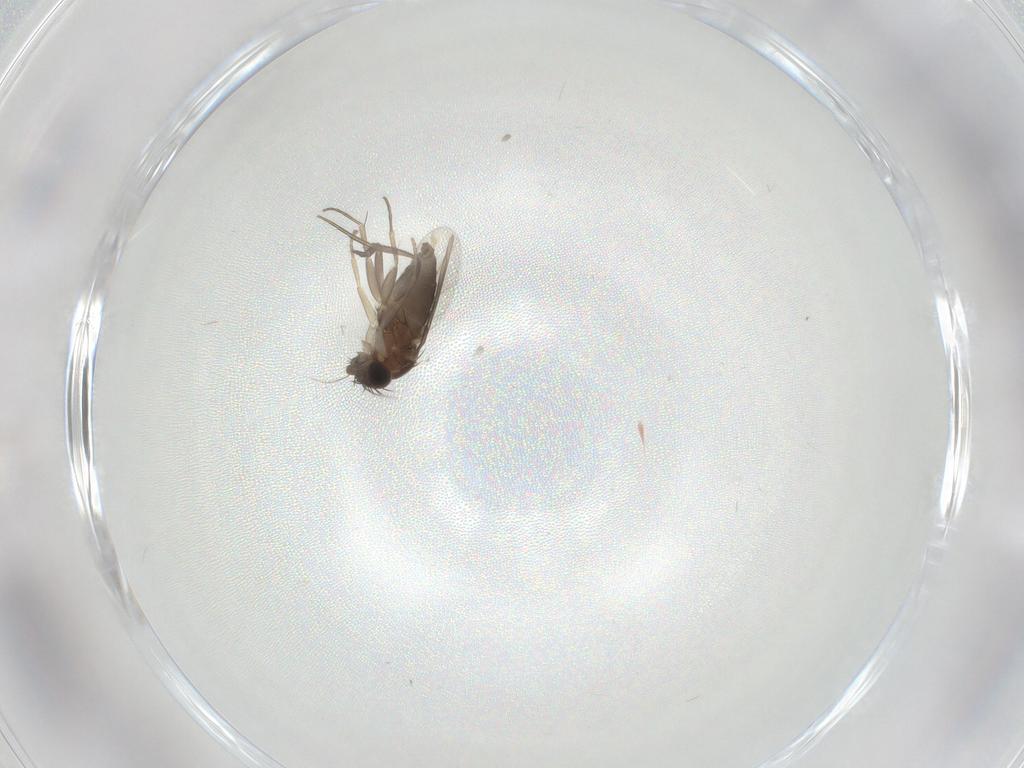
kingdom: Animalia
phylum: Arthropoda
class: Insecta
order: Diptera
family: Phoridae
